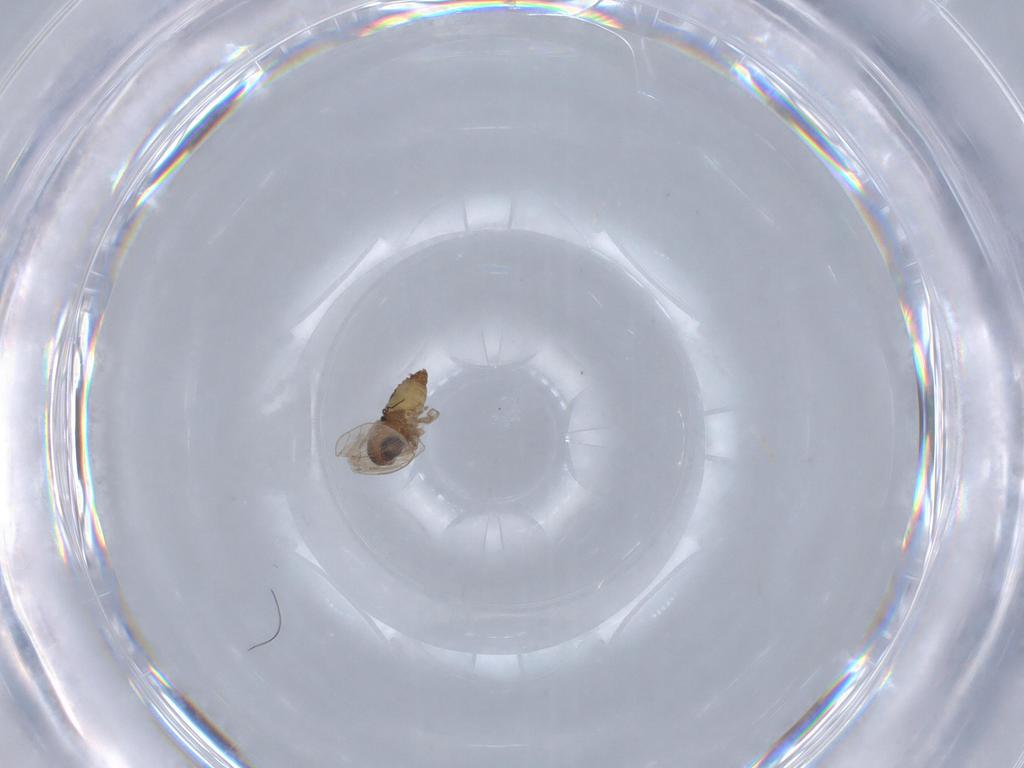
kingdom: Animalia
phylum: Arthropoda
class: Insecta
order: Diptera
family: Psychodidae
